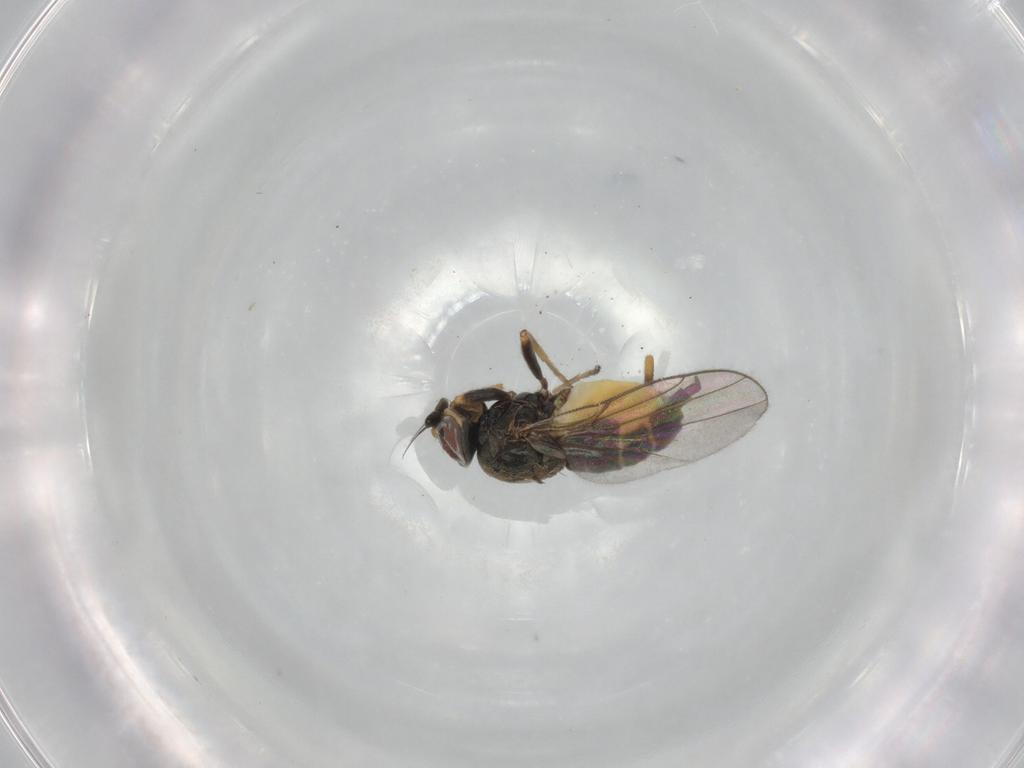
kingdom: Animalia
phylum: Arthropoda
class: Insecta
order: Diptera
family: Chloropidae
